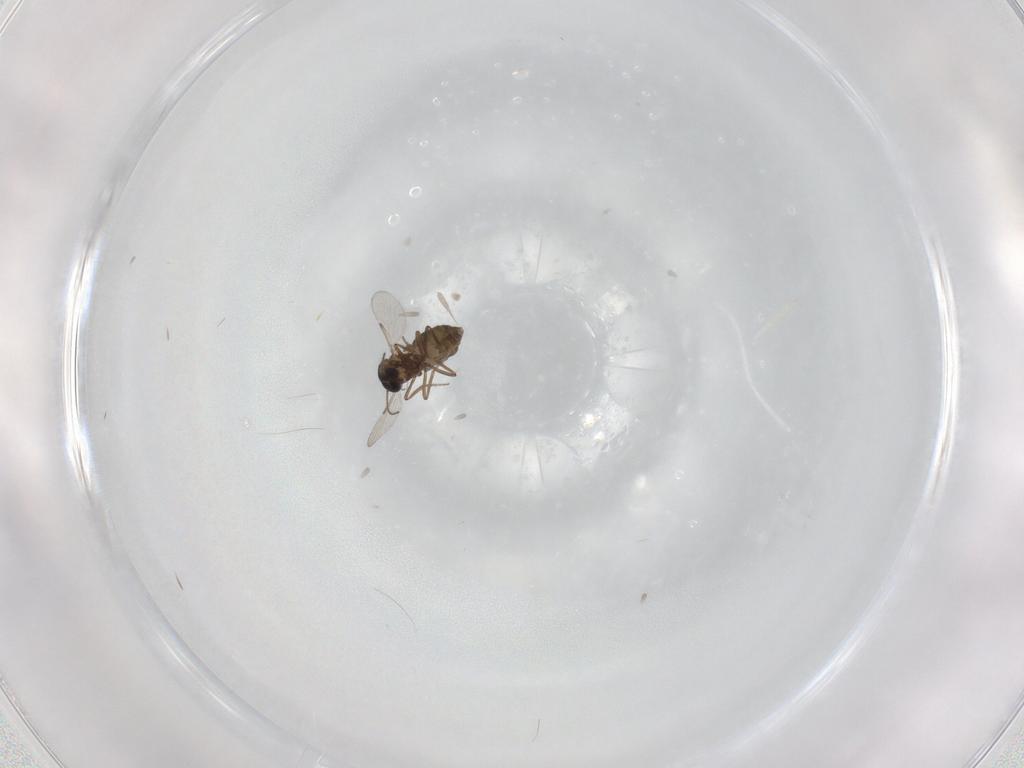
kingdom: Animalia
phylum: Arthropoda
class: Insecta
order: Diptera
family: Ceratopogonidae
